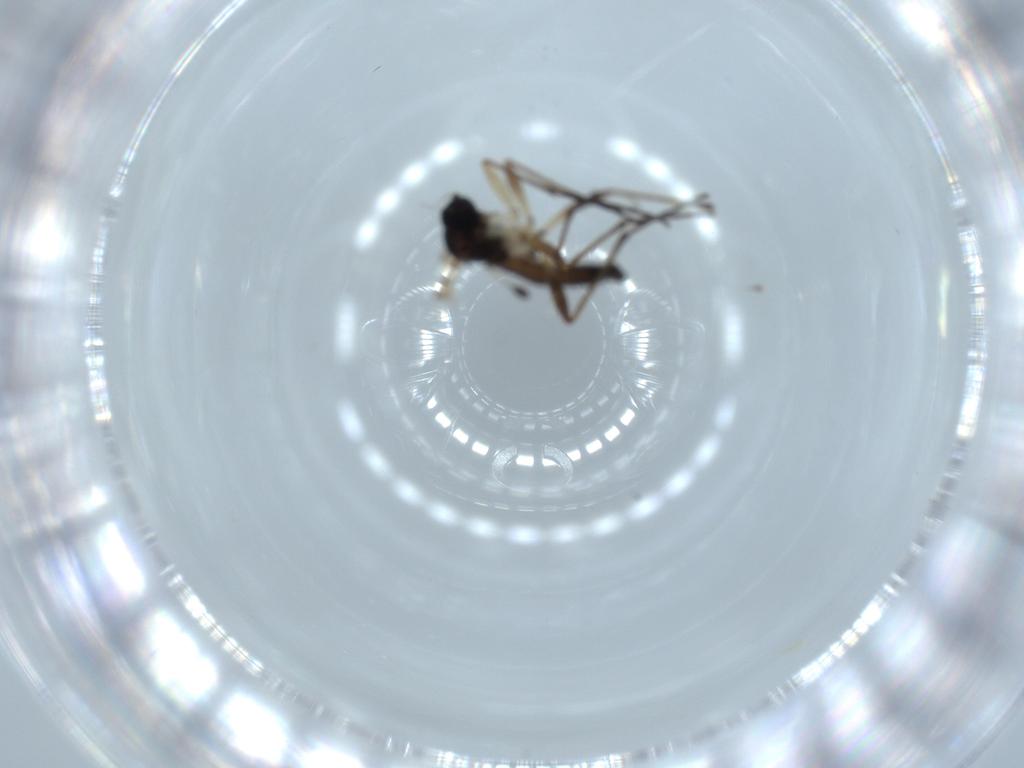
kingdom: Animalia
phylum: Arthropoda
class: Insecta
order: Diptera
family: Sciaridae
